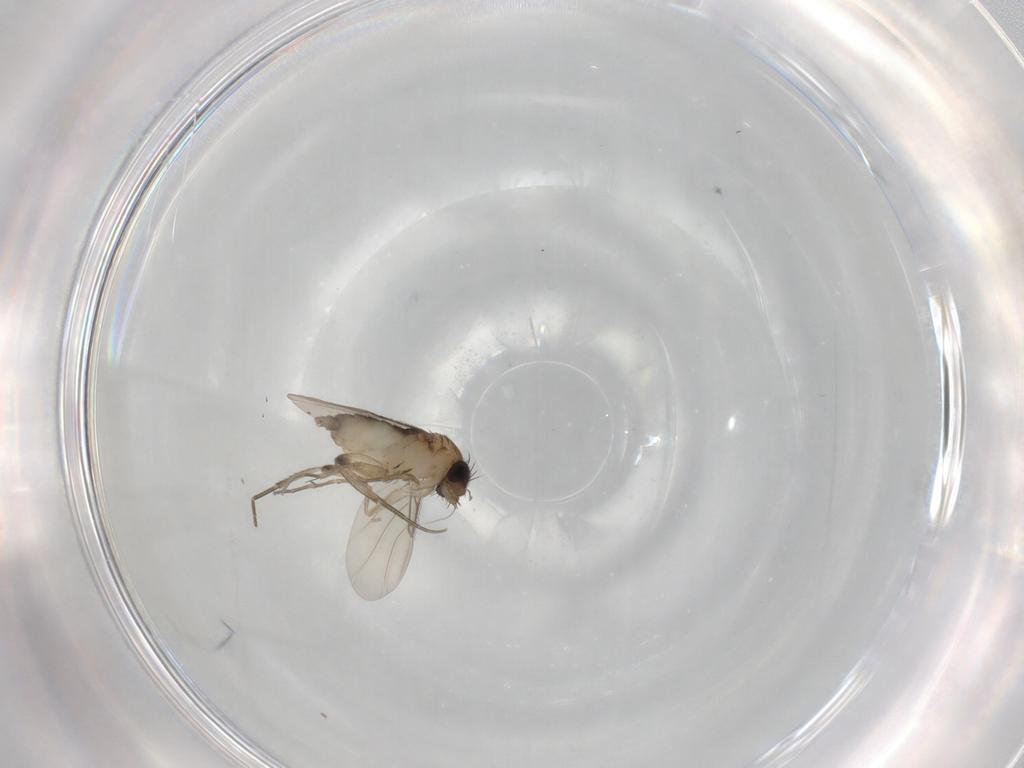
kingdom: Animalia
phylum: Arthropoda
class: Insecta
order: Diptera
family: Phoridae
